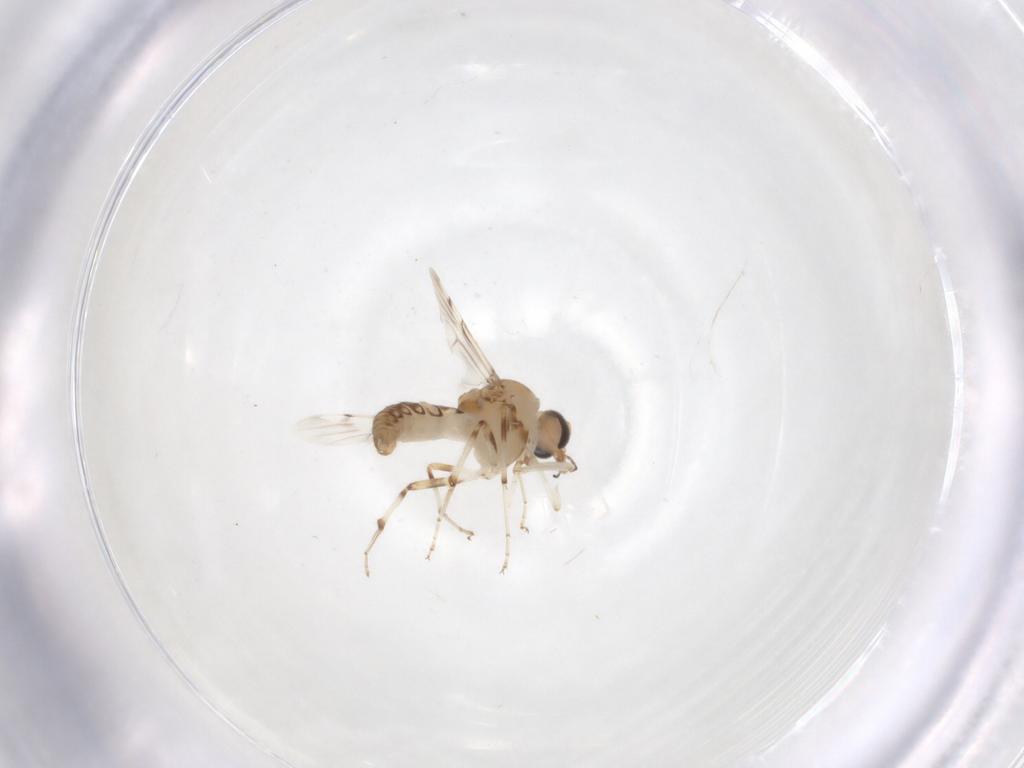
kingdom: Animalia
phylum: Arthropoda
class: Insecta
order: Diptera
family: Ceratopogonidae
